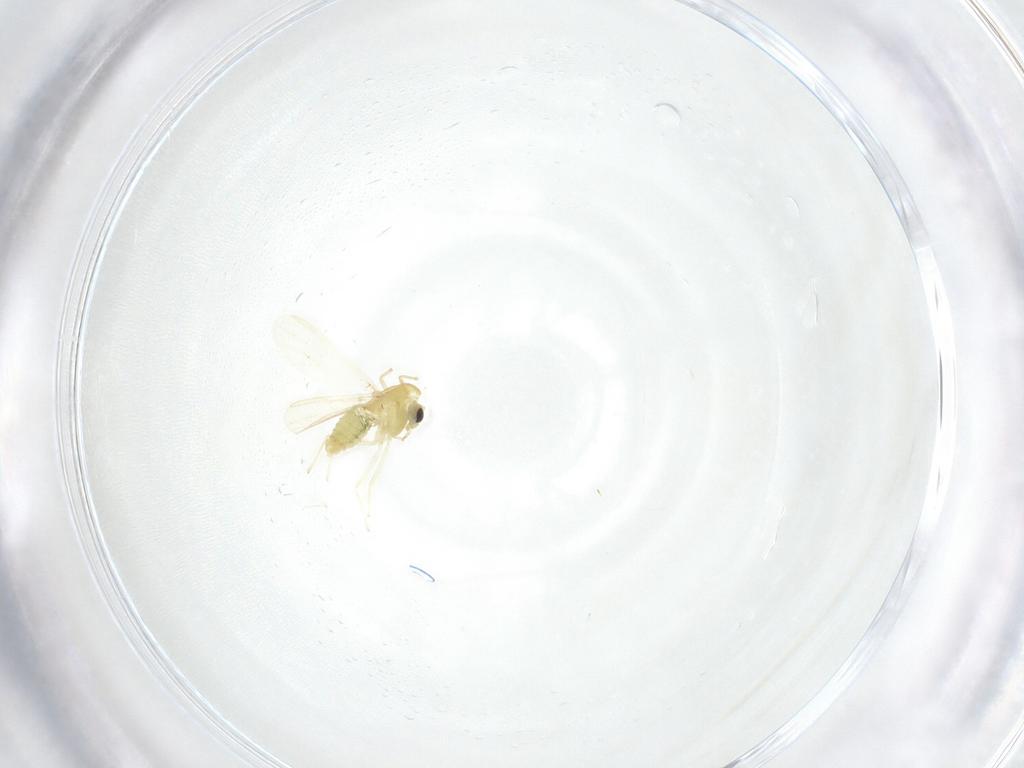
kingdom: Animalia
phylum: Arthropoda
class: Insecta
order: Diptera
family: Chironomidae
